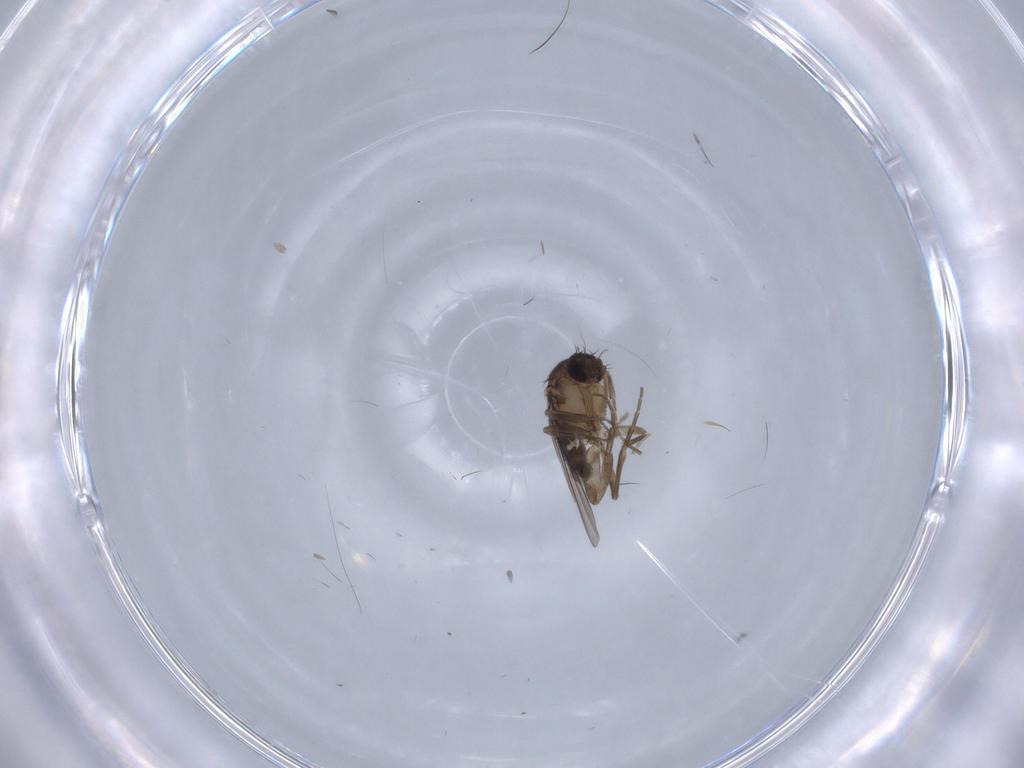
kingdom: Animalia
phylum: Arthropoda
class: Insecta
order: Diptera
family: Phoridae
